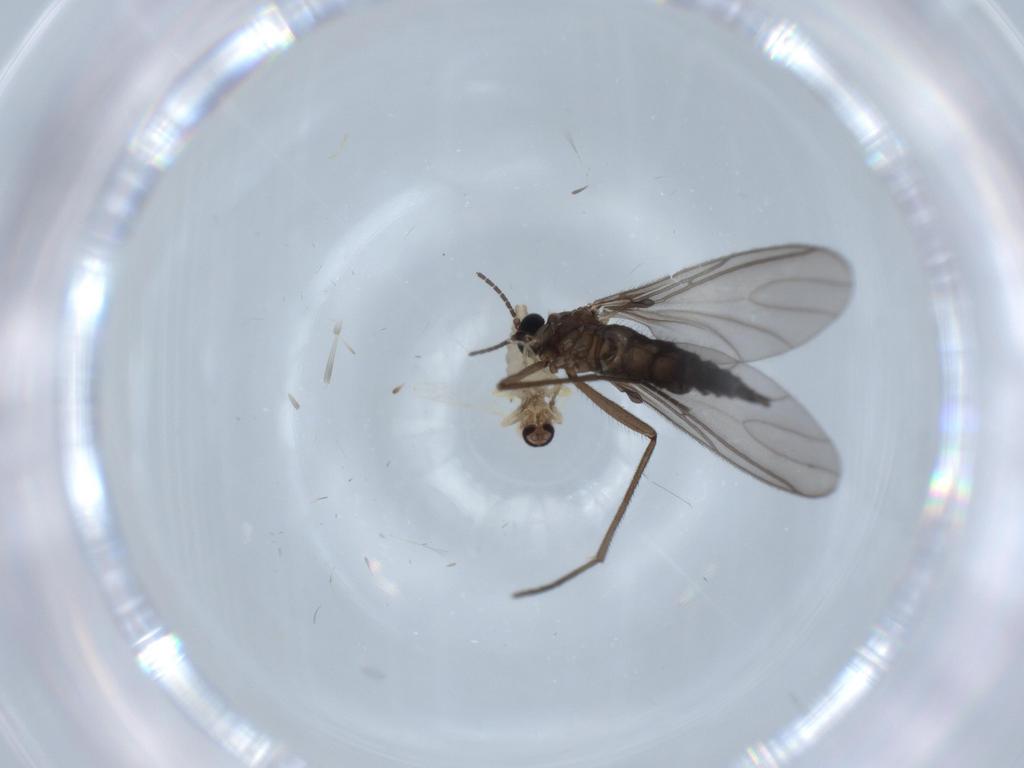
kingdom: Animalia
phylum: Arthropoda
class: Insecta
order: Diptera
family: Sciaridae
